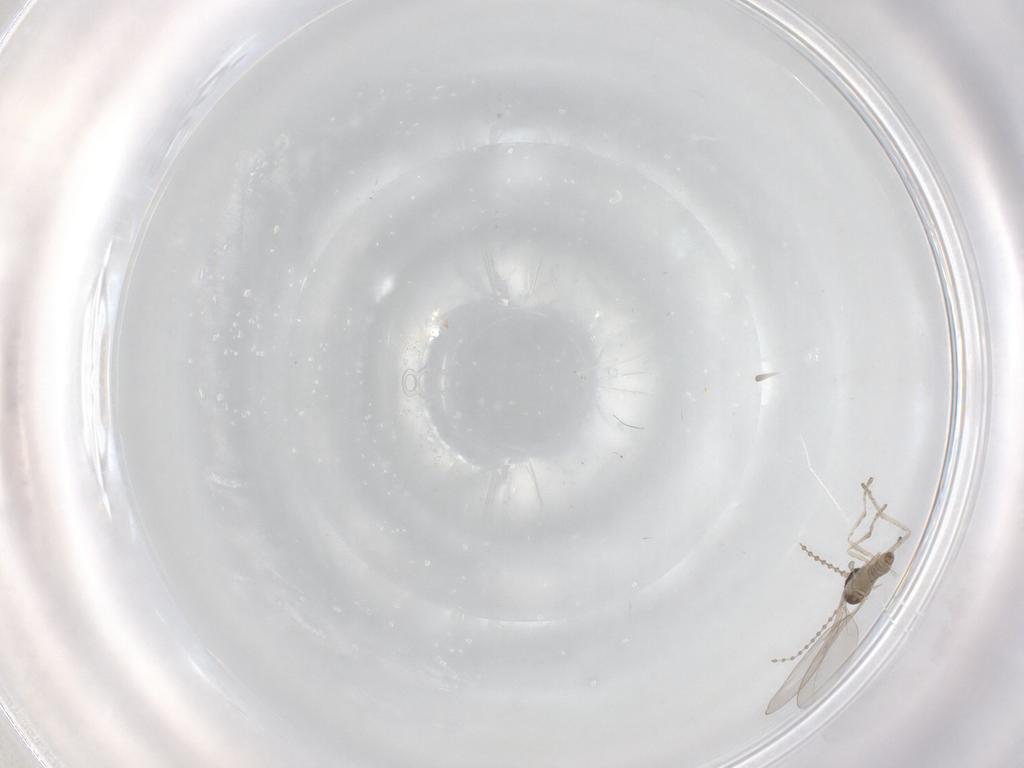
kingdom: Animalia
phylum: Arthropoda
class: Insecta
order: Diptera
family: Cecidomyiidae
